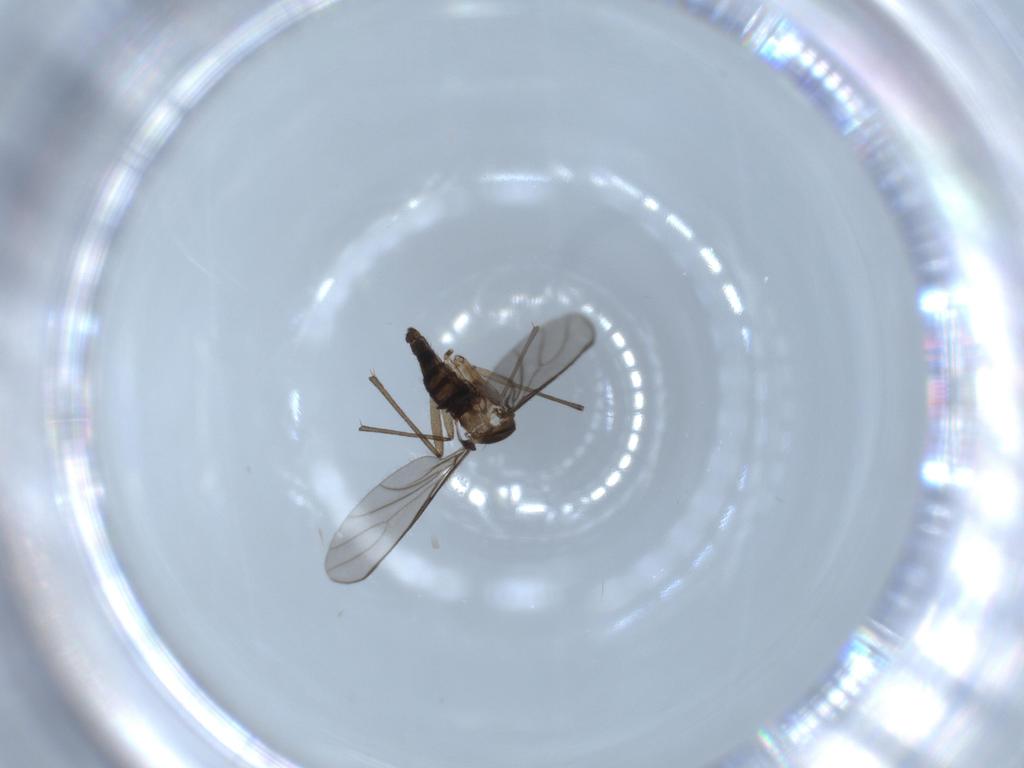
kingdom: Animalia
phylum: Arthropoda
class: Insecta
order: Diptera
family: Sciaridae
